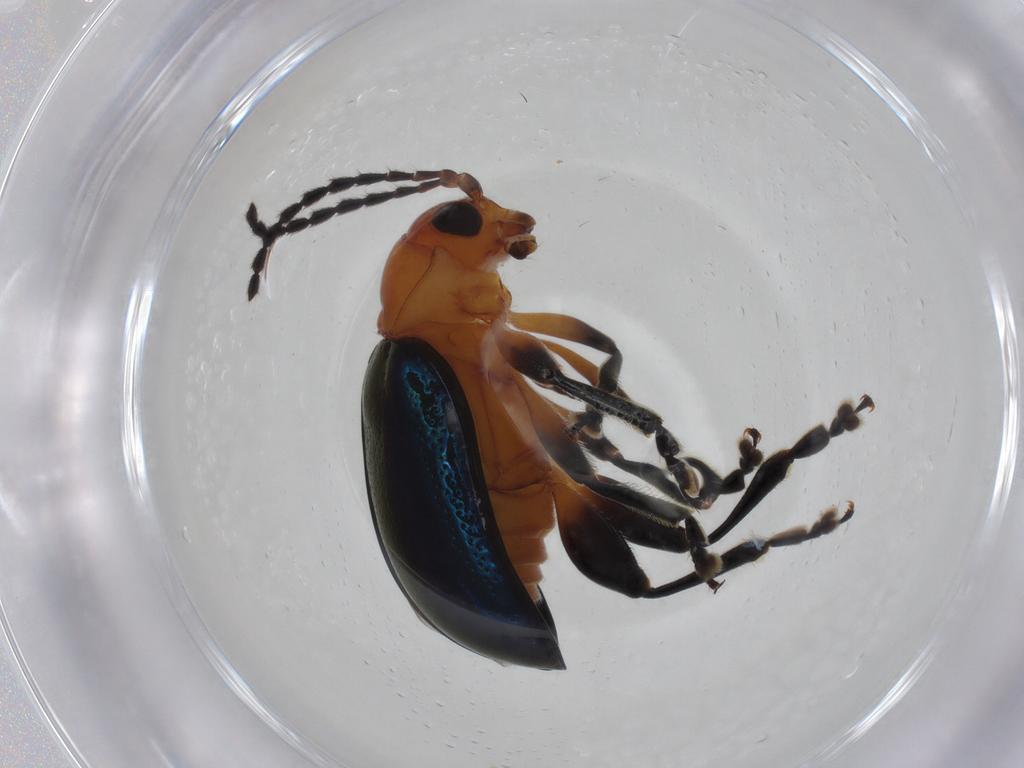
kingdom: Animalia
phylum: Arthropoda
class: Insecta
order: Coleoptera
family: Chrysomelidae
